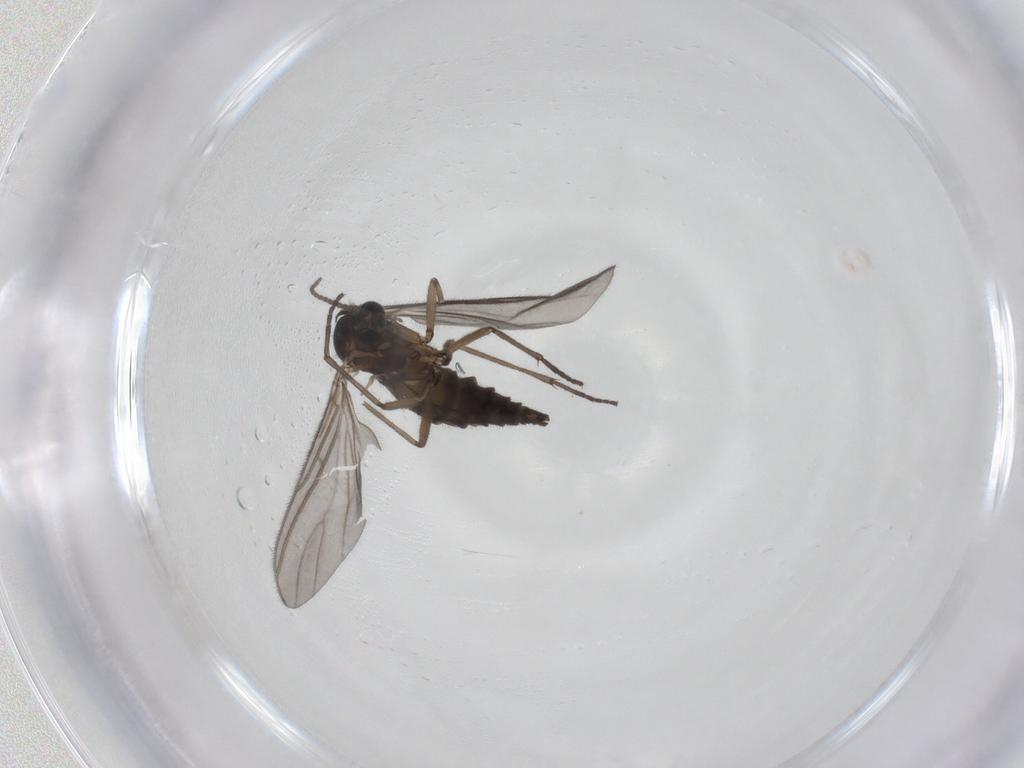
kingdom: Animalia
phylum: Arthropoda
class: Insecta
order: Diptera
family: Sciaridae
